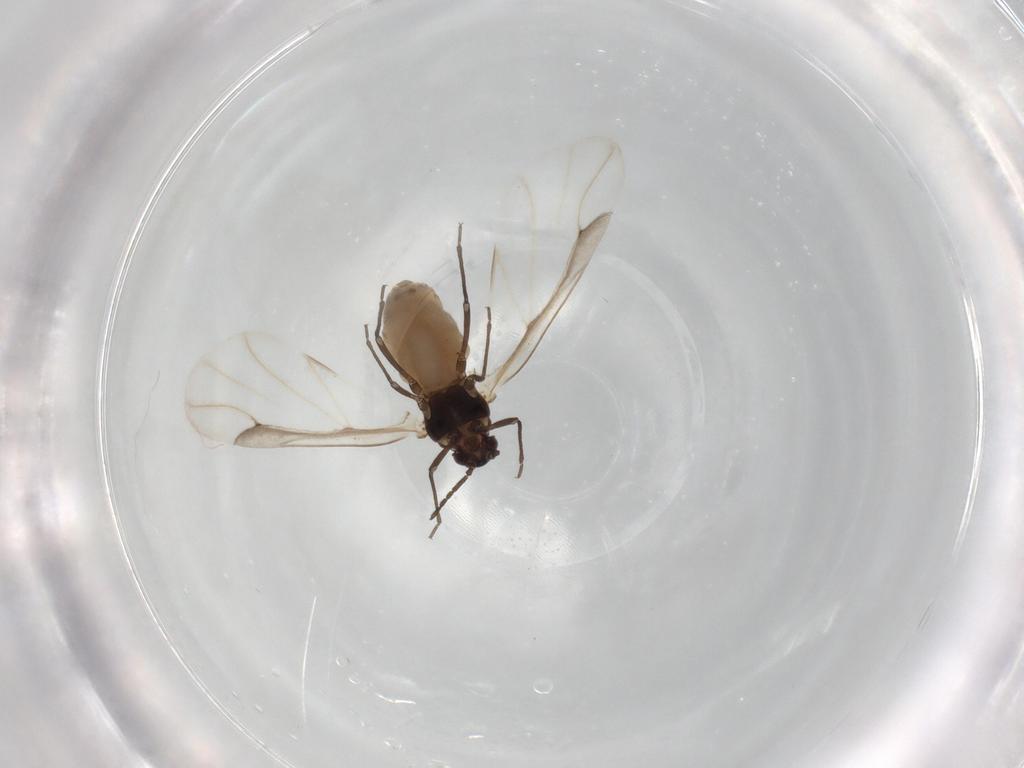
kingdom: Animalia
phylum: Arthropoda
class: Insecta
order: Hemiptera
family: Aphididae
